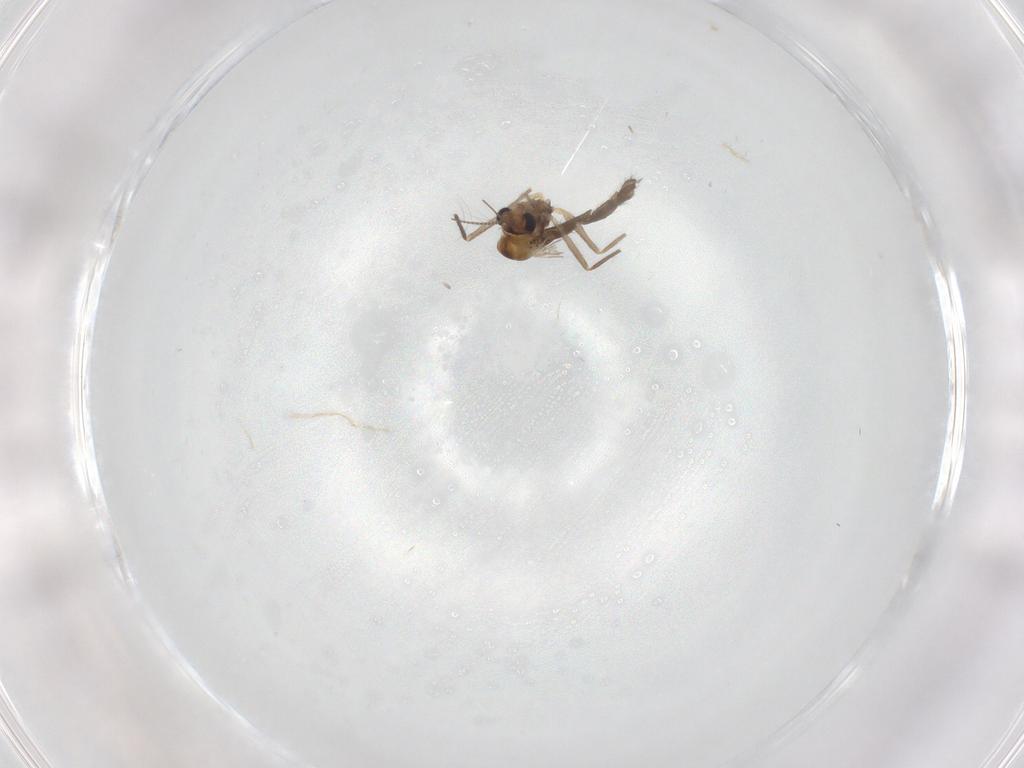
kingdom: Animalia
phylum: Arthropoda
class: Insecta
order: Diptera
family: Chironomidae
